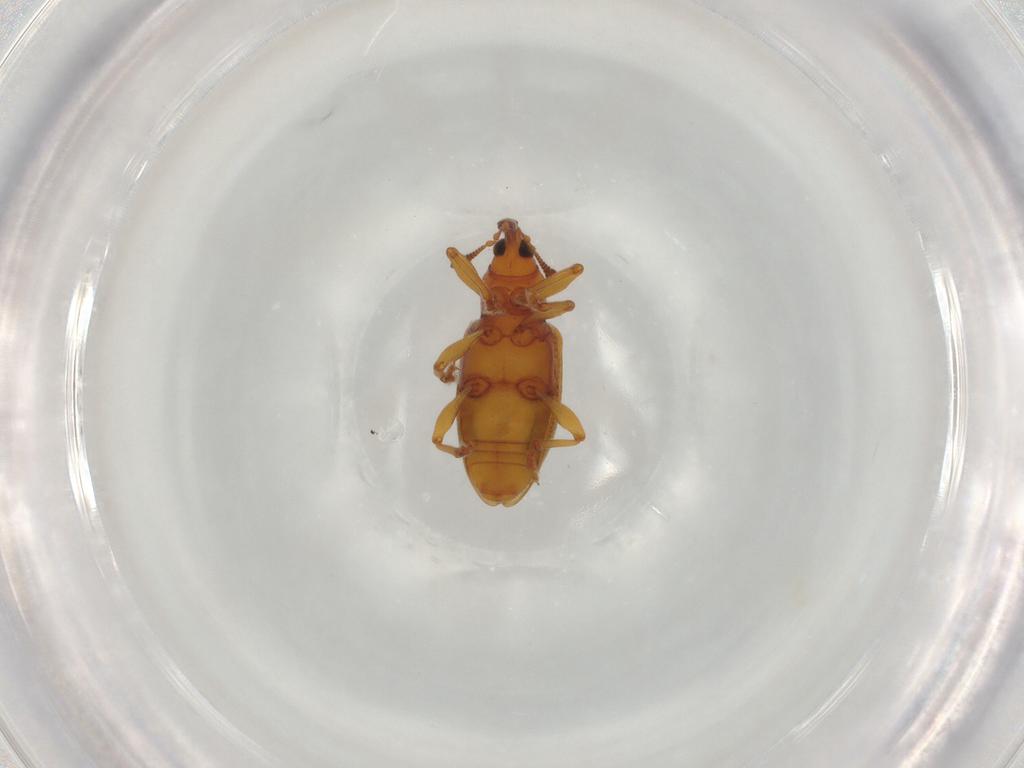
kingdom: Animalia
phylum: Arthropoda
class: Insecta
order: Coleoptera
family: Curculionidae
